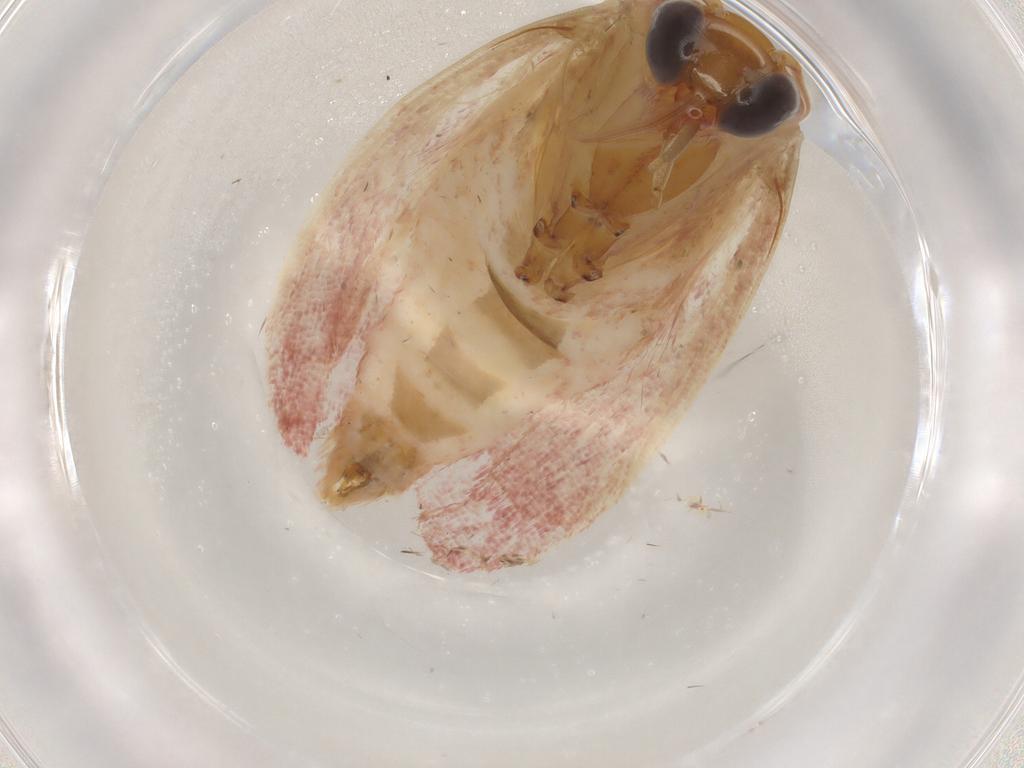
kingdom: Animalia
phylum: Arthropoda
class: Insecta
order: Lepidoptera
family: Pyralidae
